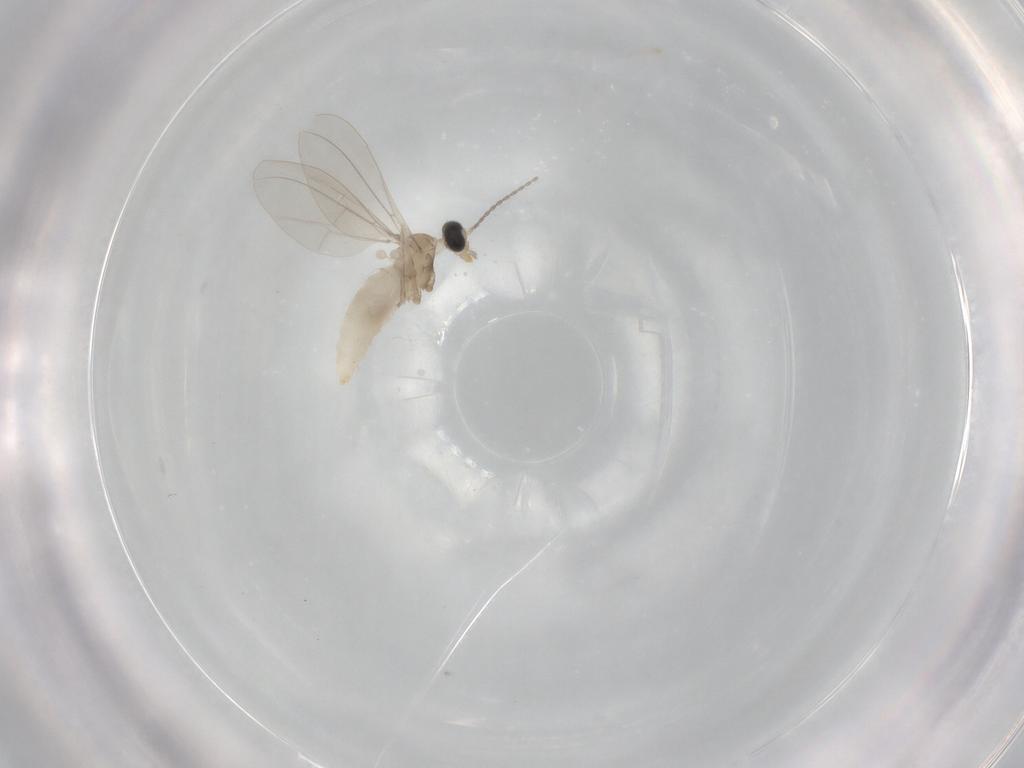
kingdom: Animalia
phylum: Arthropoda
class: Insecta
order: Diptera
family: Cecidomyiidae
